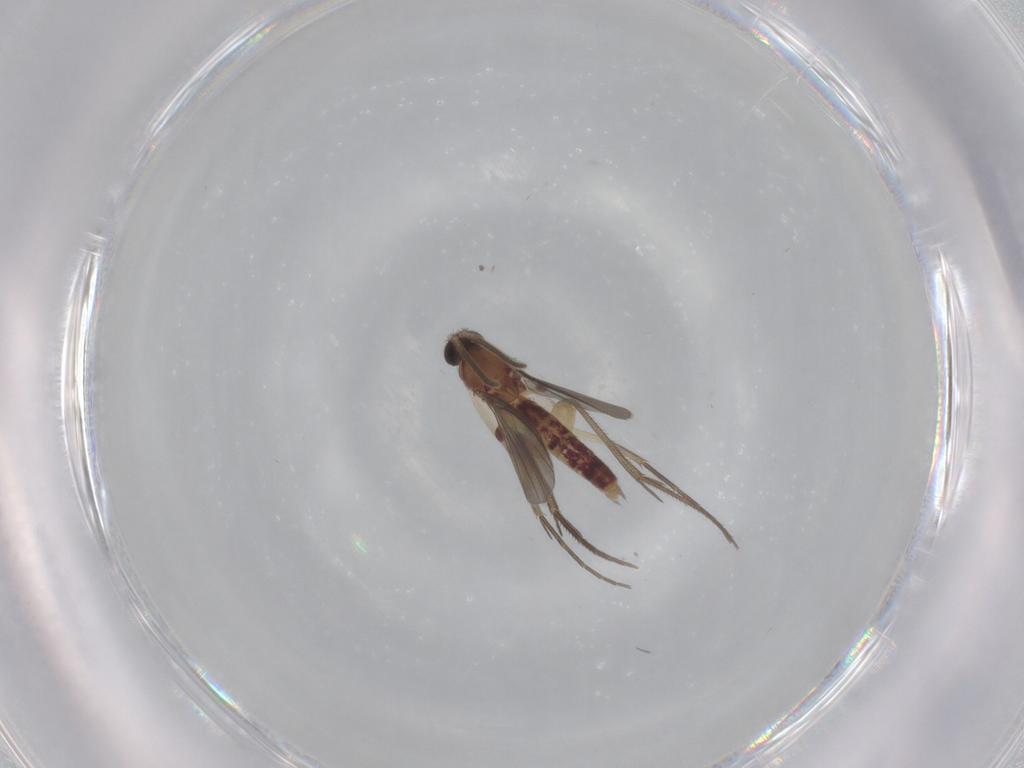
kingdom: Animalia
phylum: Arthropoda
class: Insecta
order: Diptera
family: Mycetophilidae
